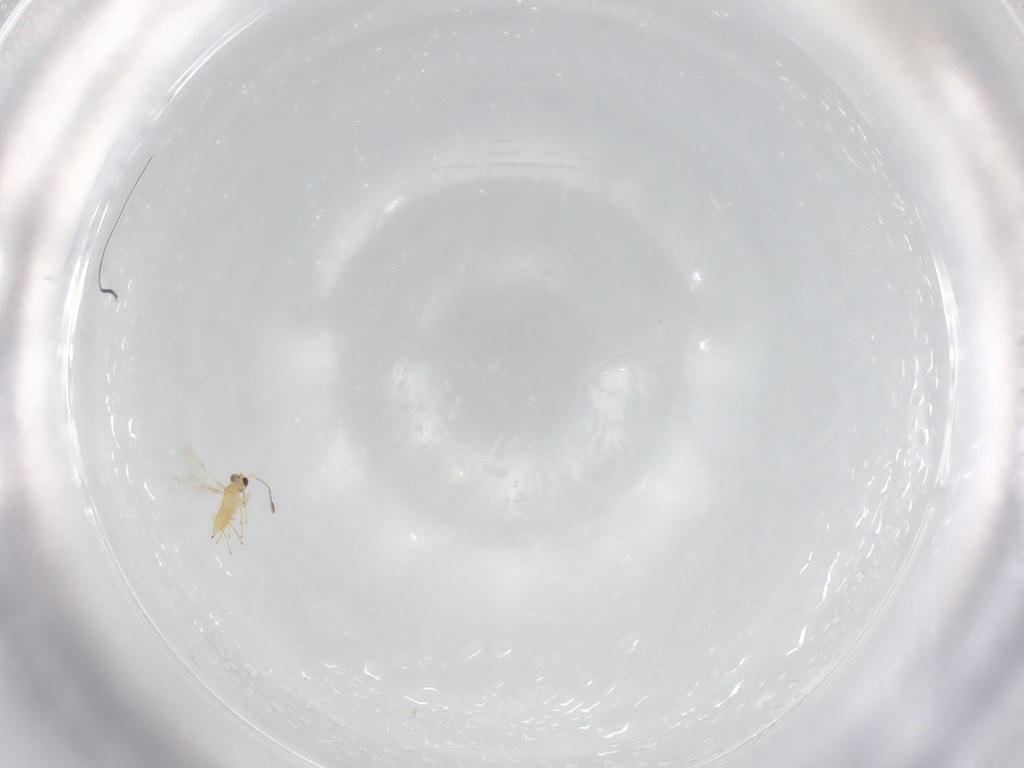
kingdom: Animalia
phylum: Arthropoda
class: Insecta
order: Hymenoptera
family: Mymaridae
